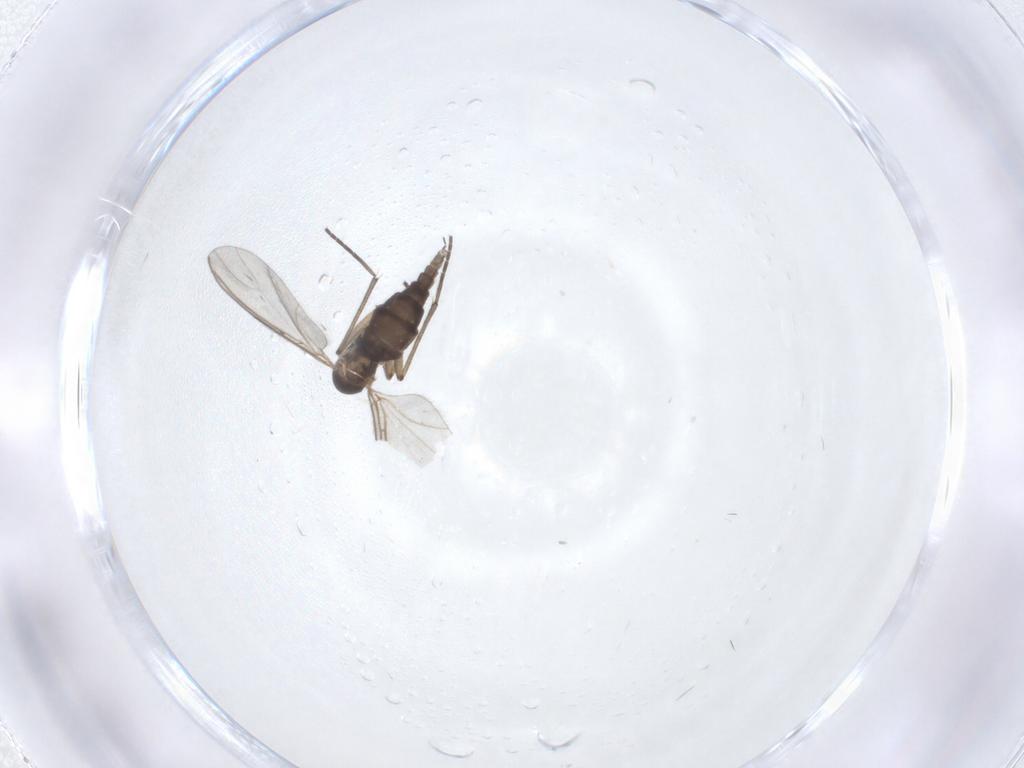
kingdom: Animalia
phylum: Arthropoda
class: Insecta
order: Diptera
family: Sciaridae
